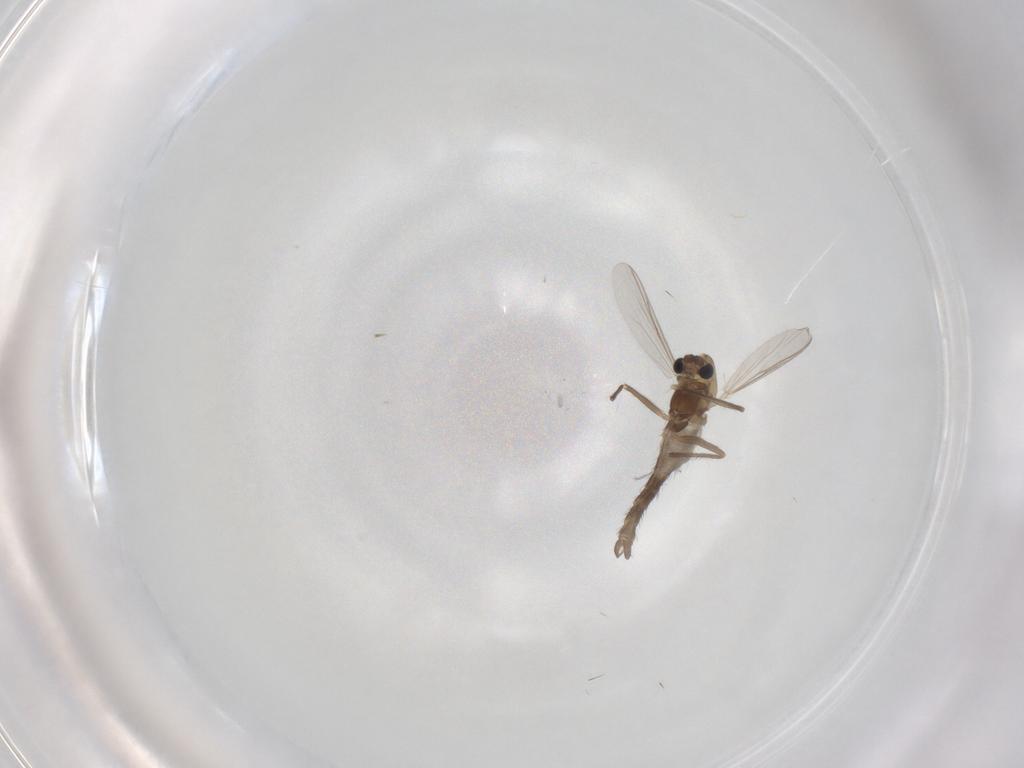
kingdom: Animalia
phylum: Arthropoda
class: Insecta
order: Diptera
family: Chironomidae
